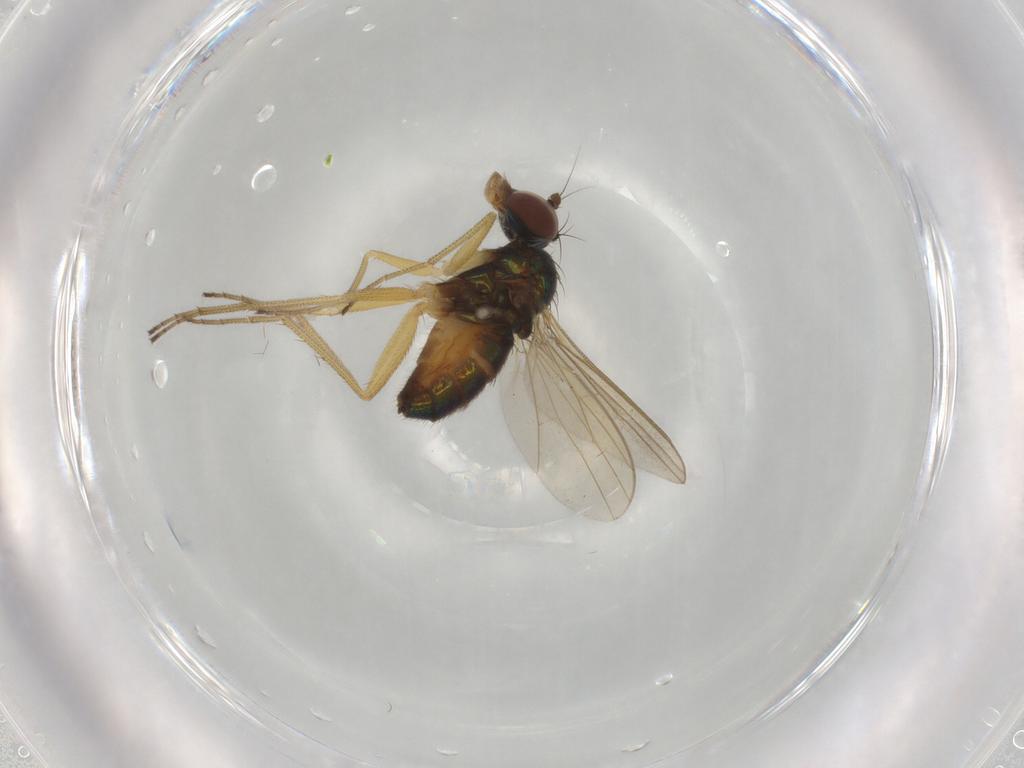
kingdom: Animalia
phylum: Arthropoda
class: Insecta
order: Diptera
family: Dolichopodidae
